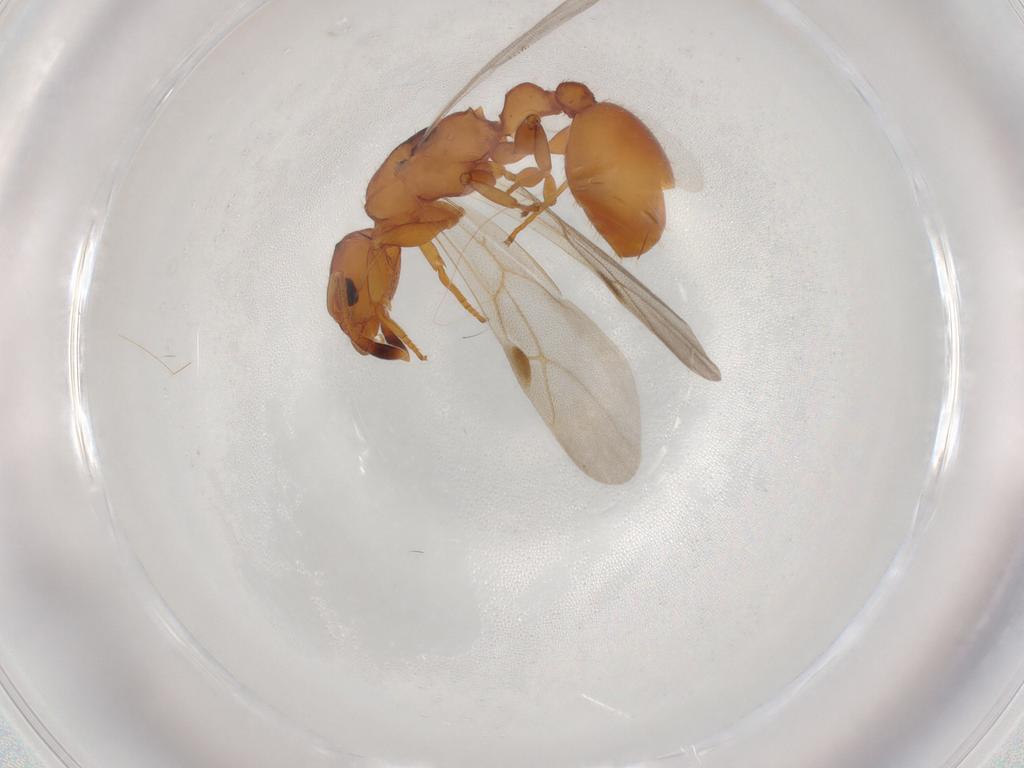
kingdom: Animalia
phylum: Arthropoda
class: Insecta
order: Hymenoptera
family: Formicidae
